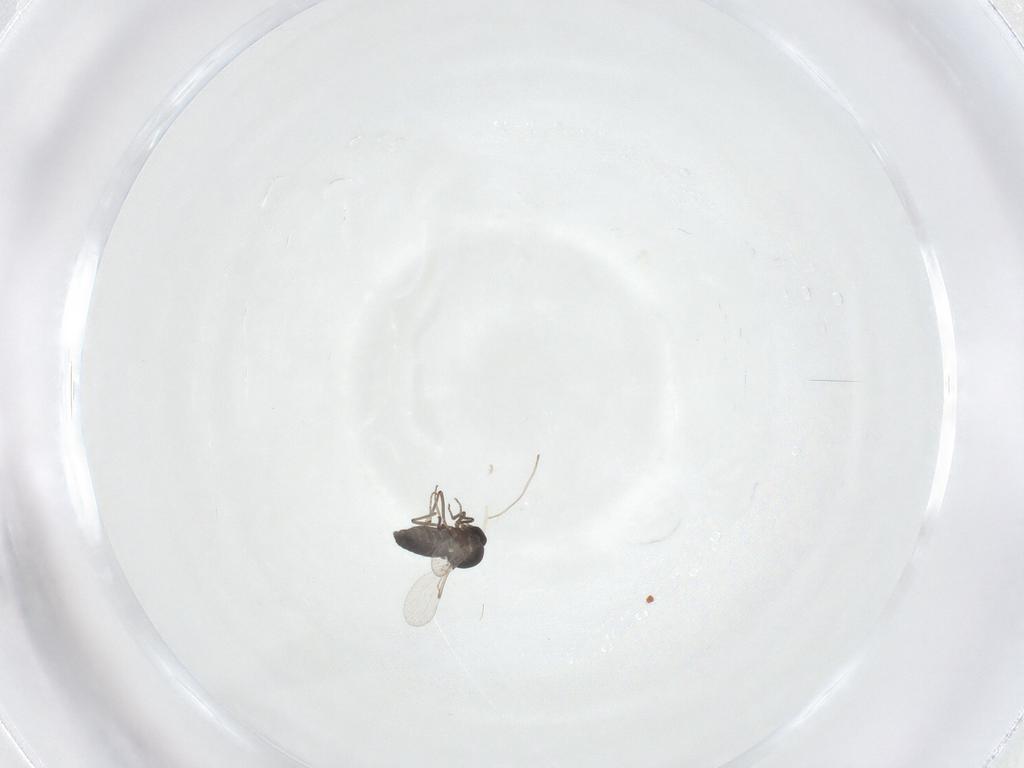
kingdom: Animalia
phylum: Arthropoda
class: Insecta
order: Diptera
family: Ceratopogonidae
